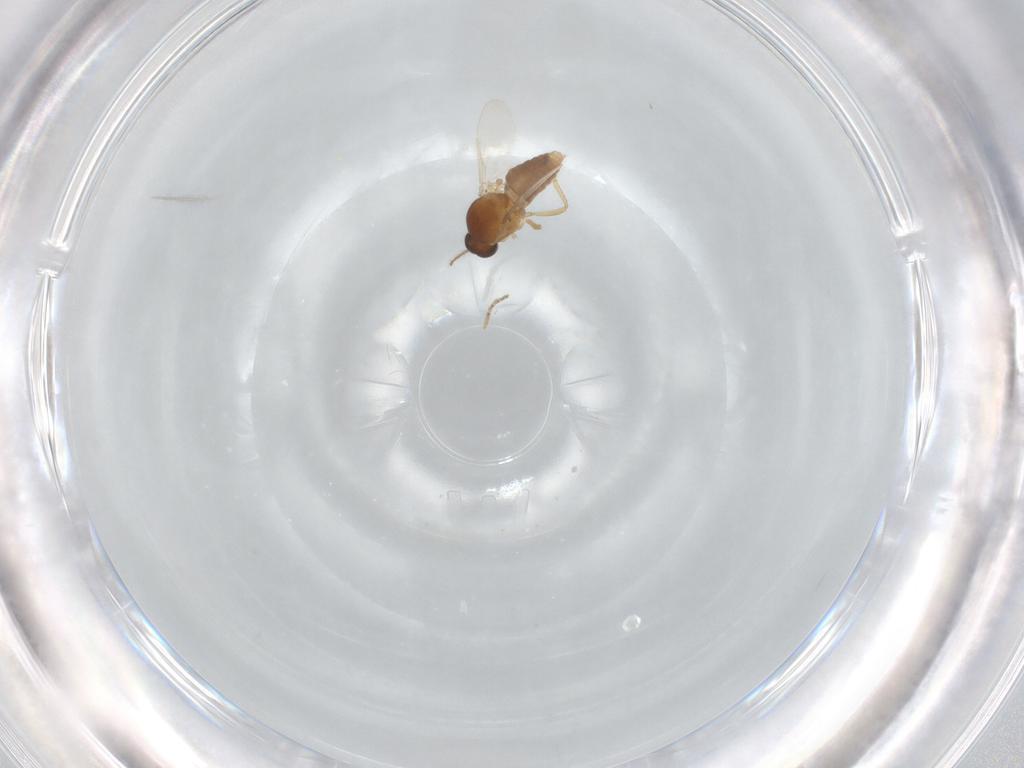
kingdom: Animalia
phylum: Arthropoda
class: Insecta
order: Diptera
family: Ceratopogonidae
